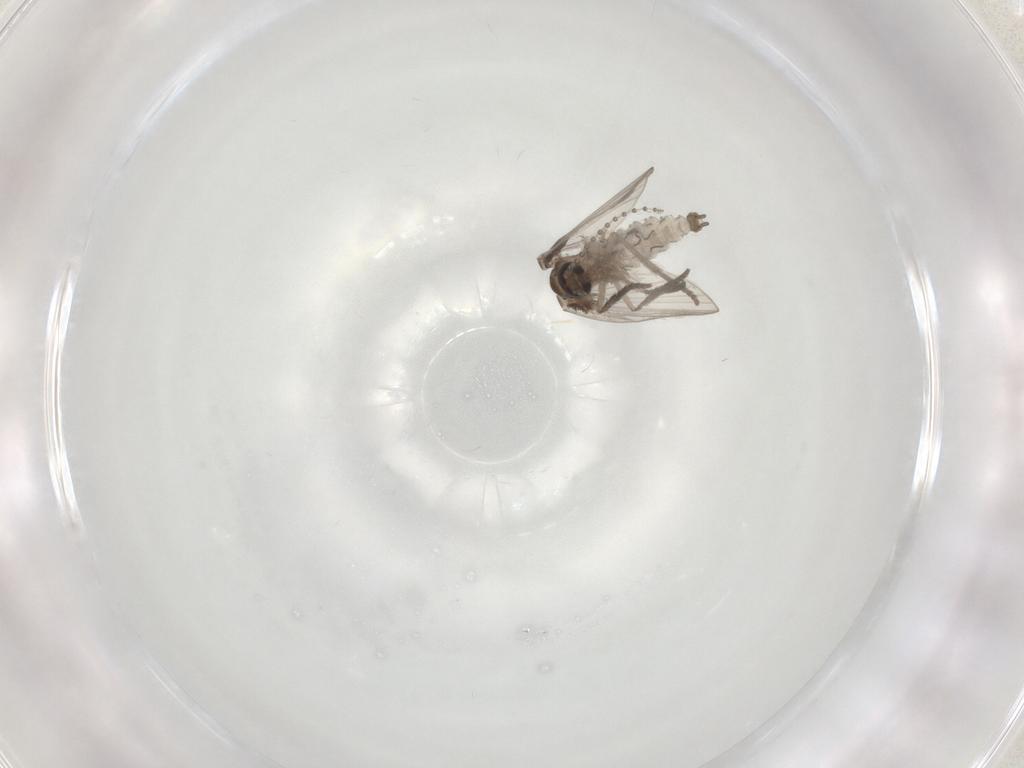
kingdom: Animalia
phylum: Arthropoda
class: Insecta
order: Diptera
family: Psychodidae
